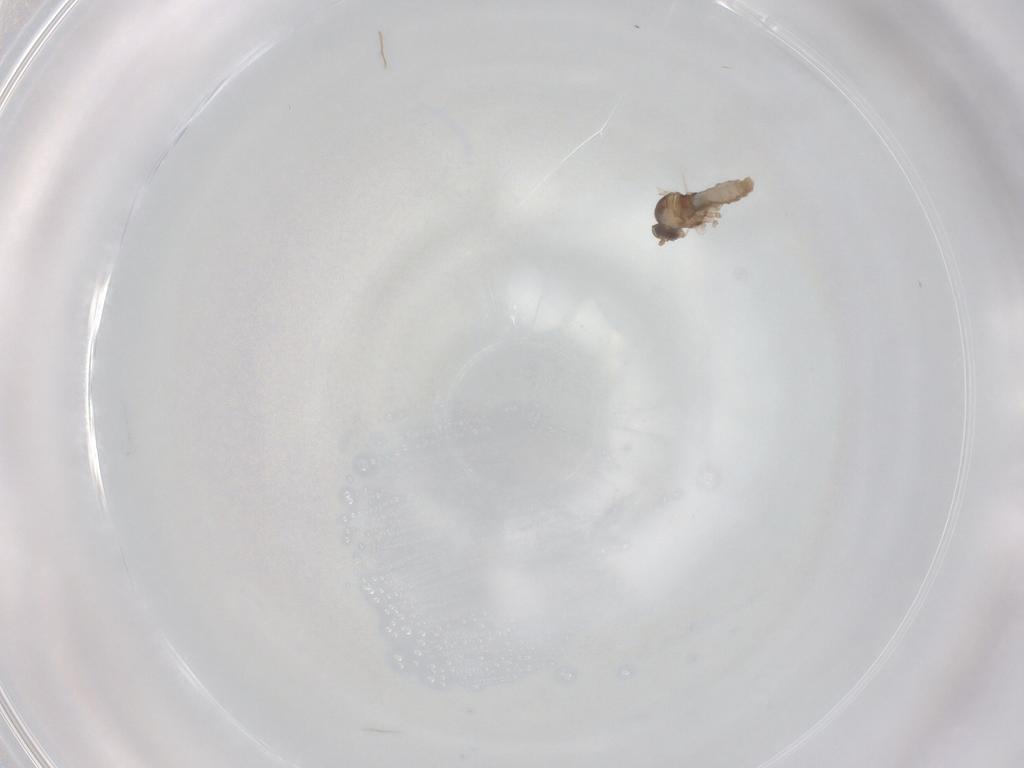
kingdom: Animalia
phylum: Arthropoda
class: Insecta
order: Diptera
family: Cecidomyiidae
